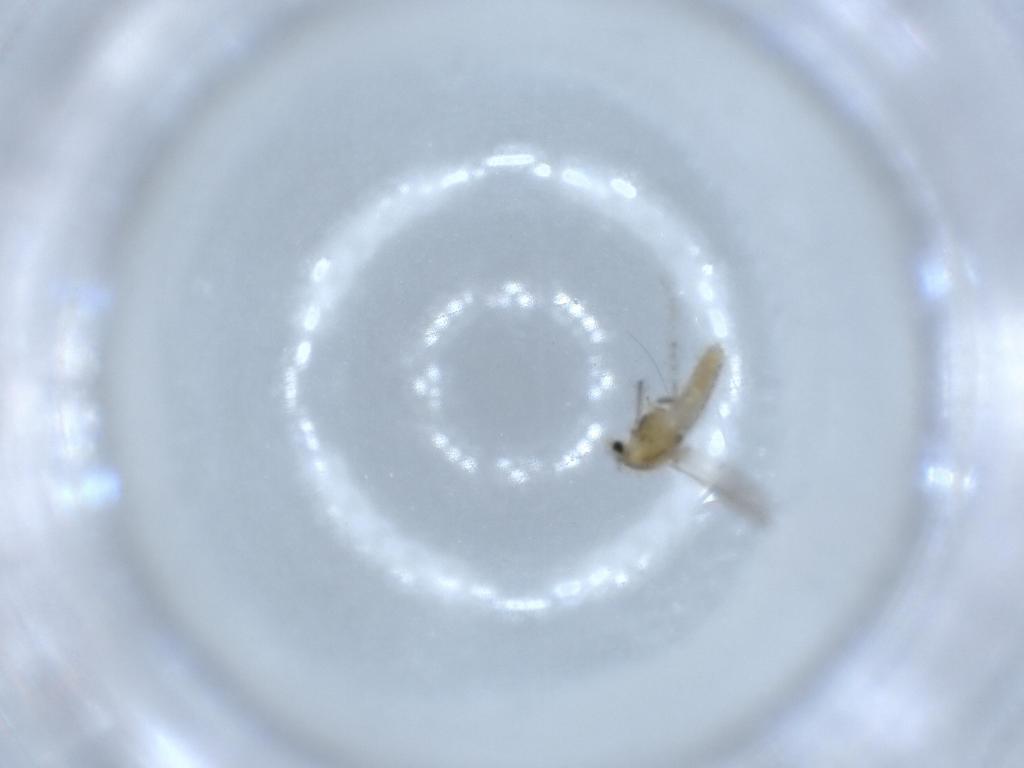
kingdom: Animalia
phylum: Arthropoda
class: Insecta
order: Diptera
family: Chironomidae
